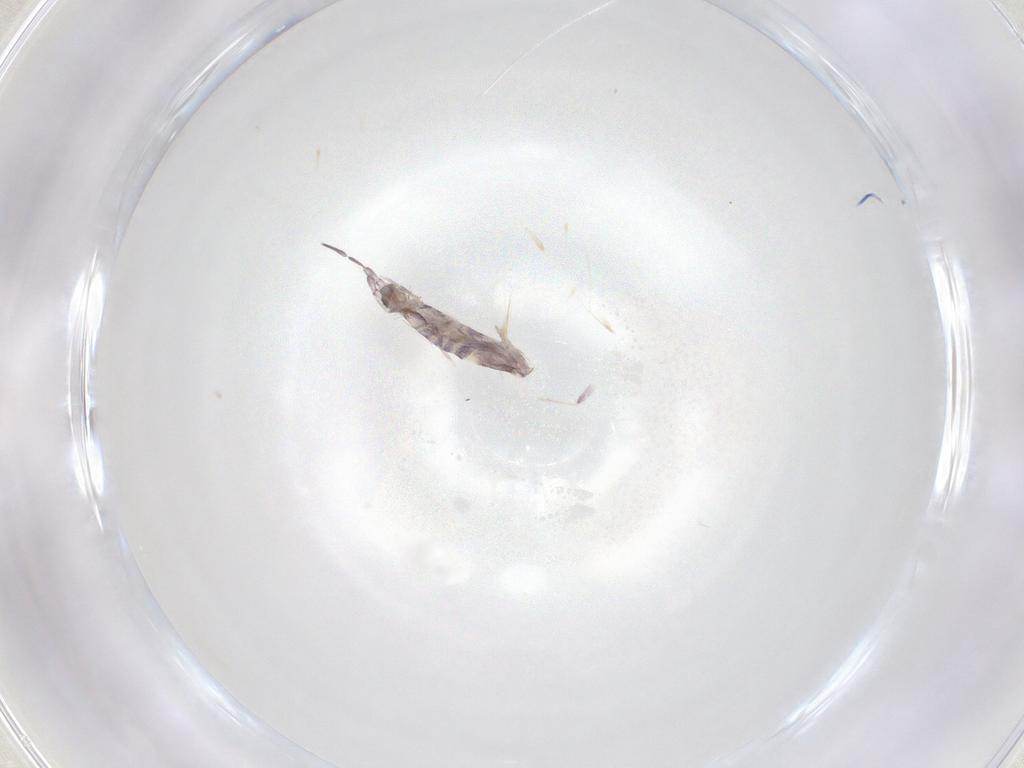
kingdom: Animalia
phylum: Arthropoda
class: Collembola
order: Poduromorpha
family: Hypogastruridae
